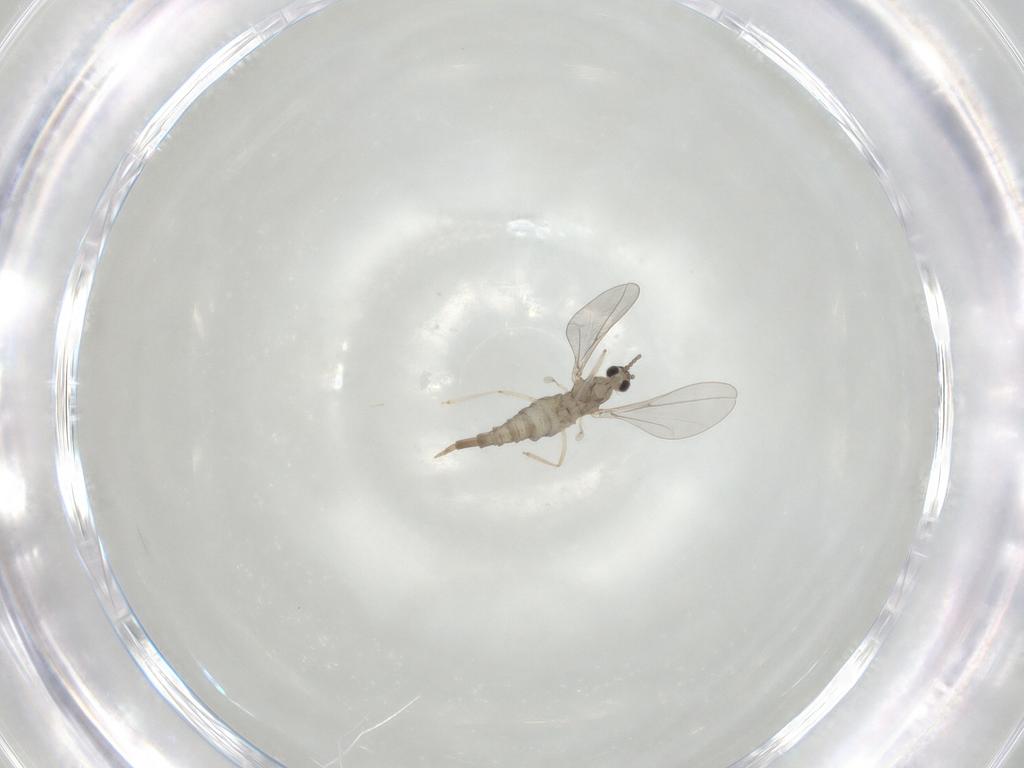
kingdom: Animalia
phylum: Arthropoda
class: Insecta
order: Diptera
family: Cecidomyiidae
